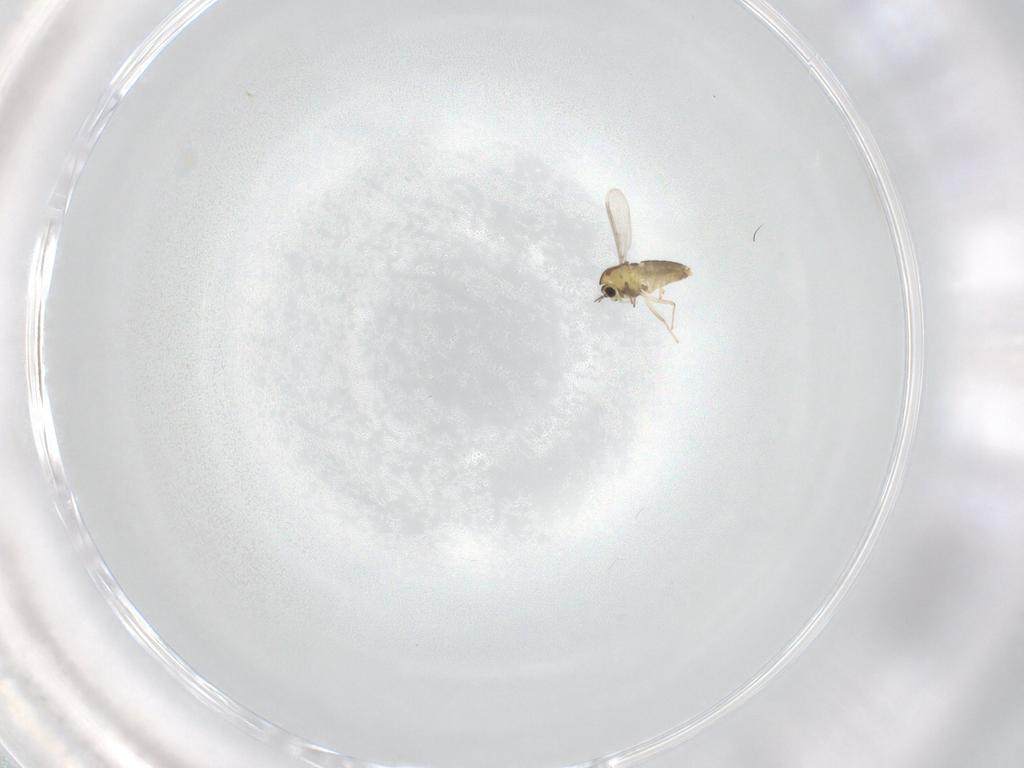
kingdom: Animalia
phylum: Arthropoda
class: Insecta
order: Diptera
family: Chironomidae
